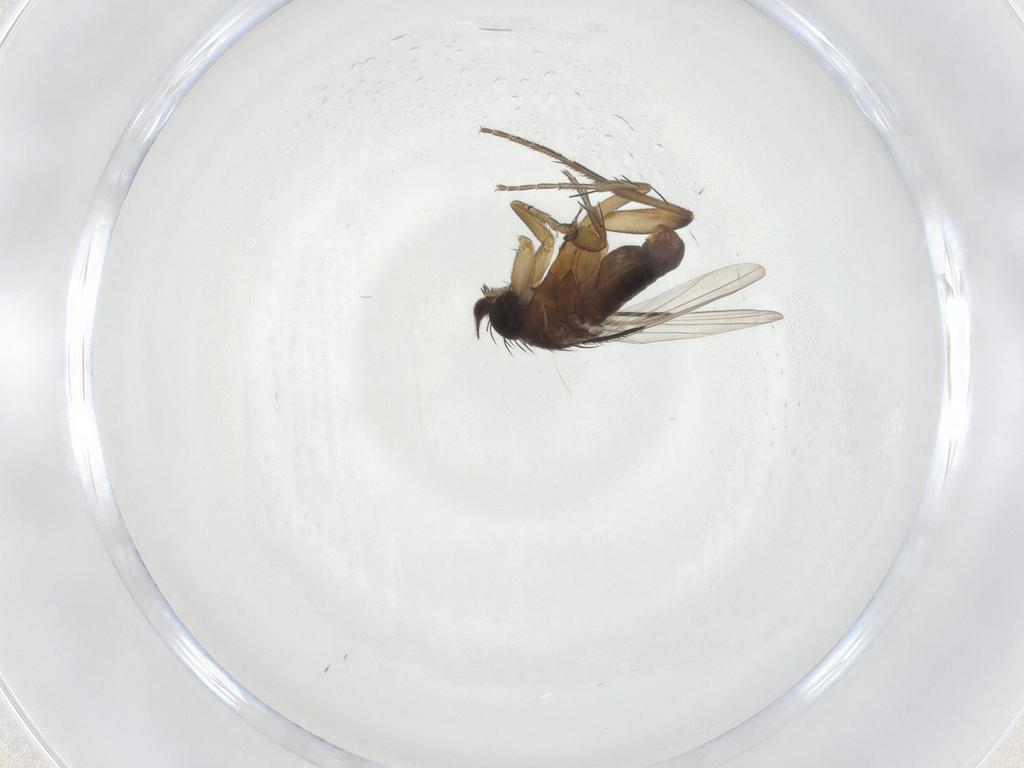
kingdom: Animalia
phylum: Arthropoda
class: Insecta
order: Diptera
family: Phoridae
